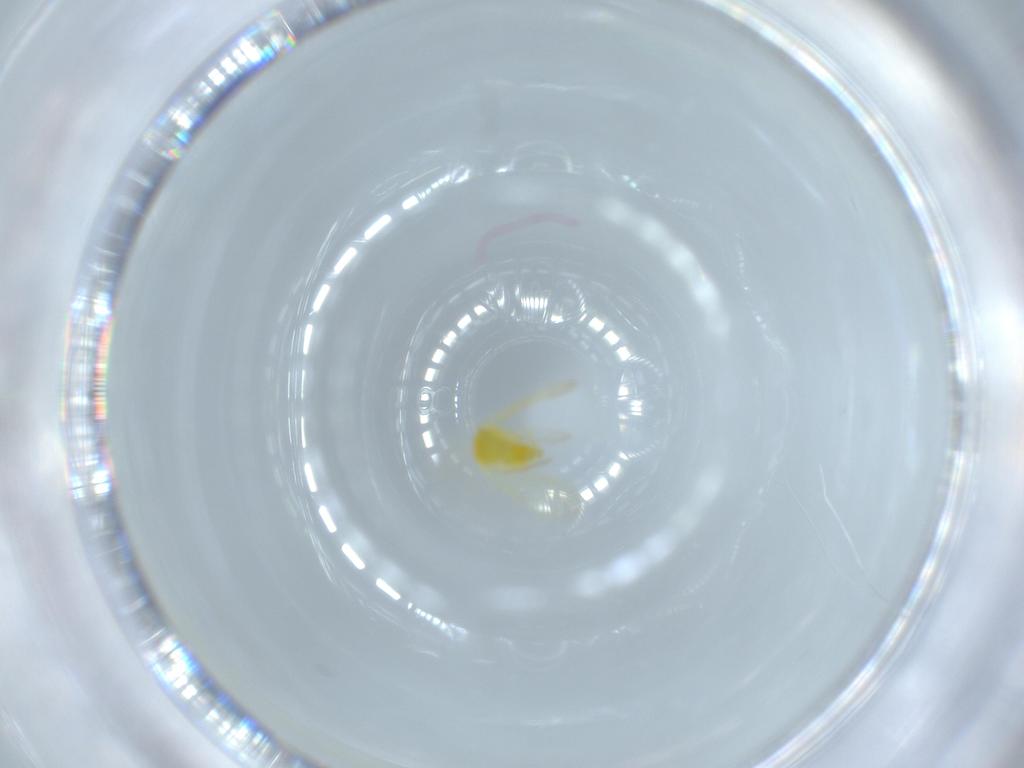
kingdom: Animalia
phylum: Arthropoda
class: Insecta
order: Hemiptera
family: Aleyrodidae
